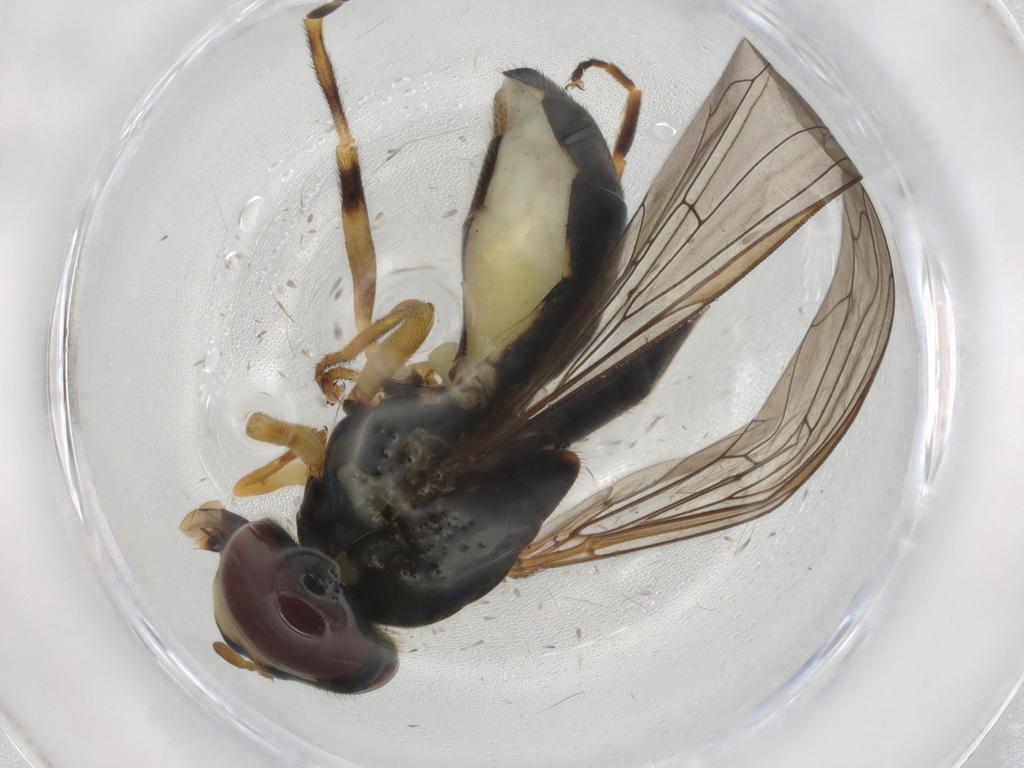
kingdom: Animalia
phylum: Arthropoda
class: Insecta
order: Diptera
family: Syrphidae
